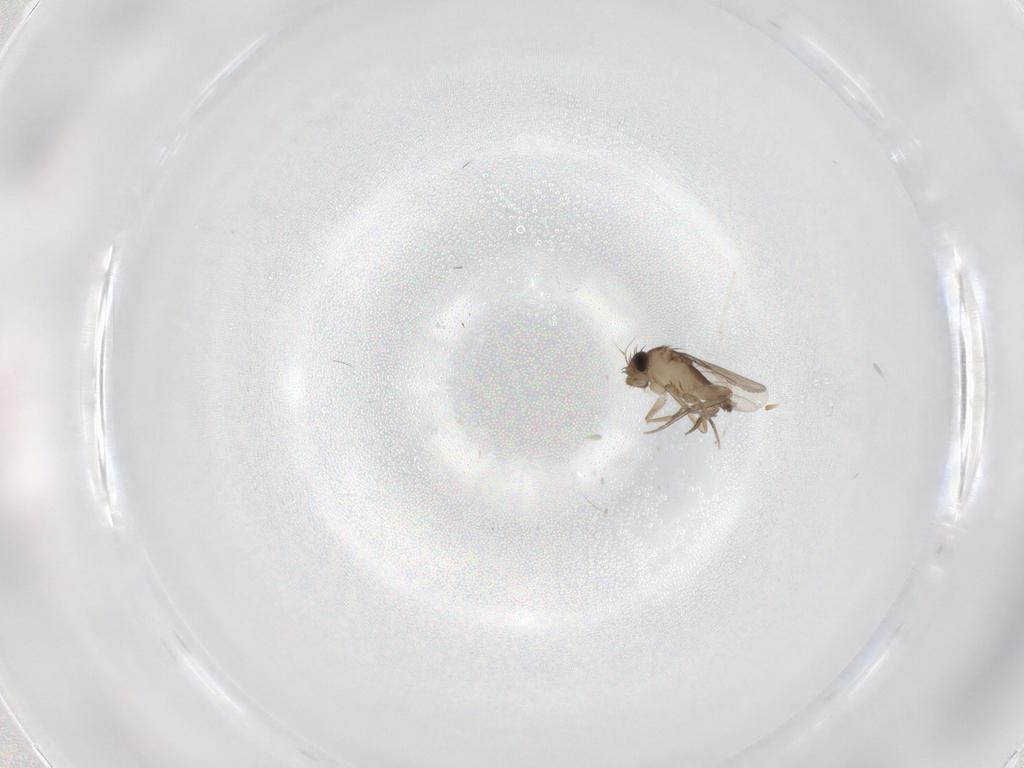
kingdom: Animalia
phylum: Arthropoda
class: Insecta
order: Diptera
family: Phoridae
